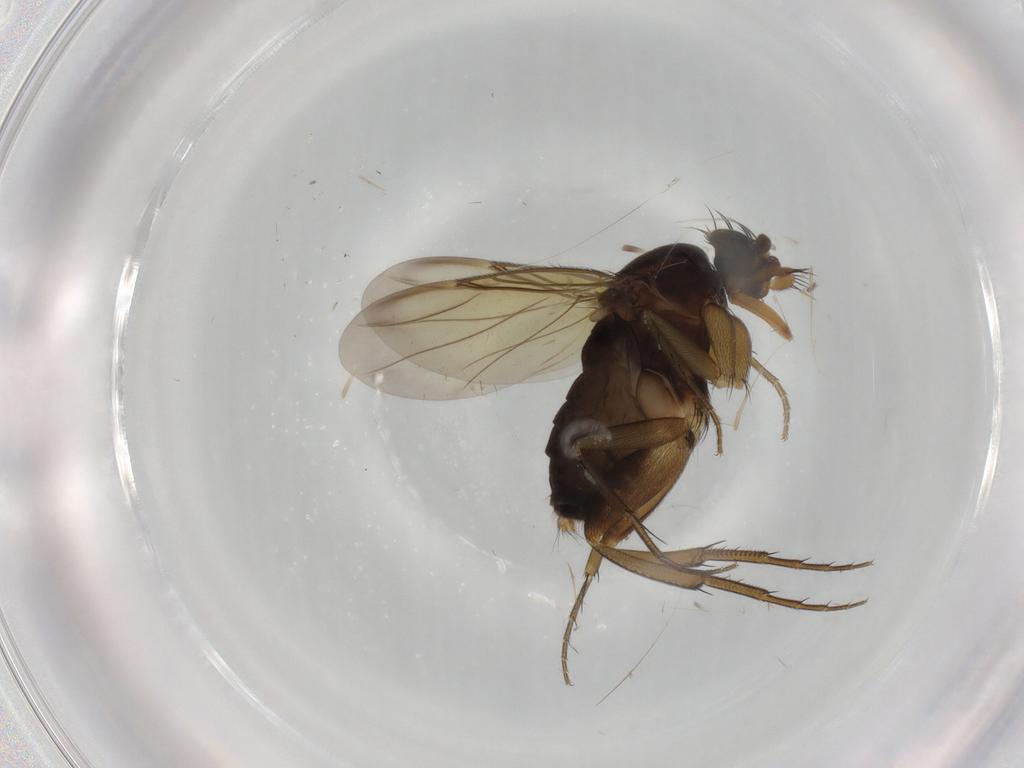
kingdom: Animalia
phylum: Arthropoda
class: Insecta
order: Diptera
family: Phoridae
